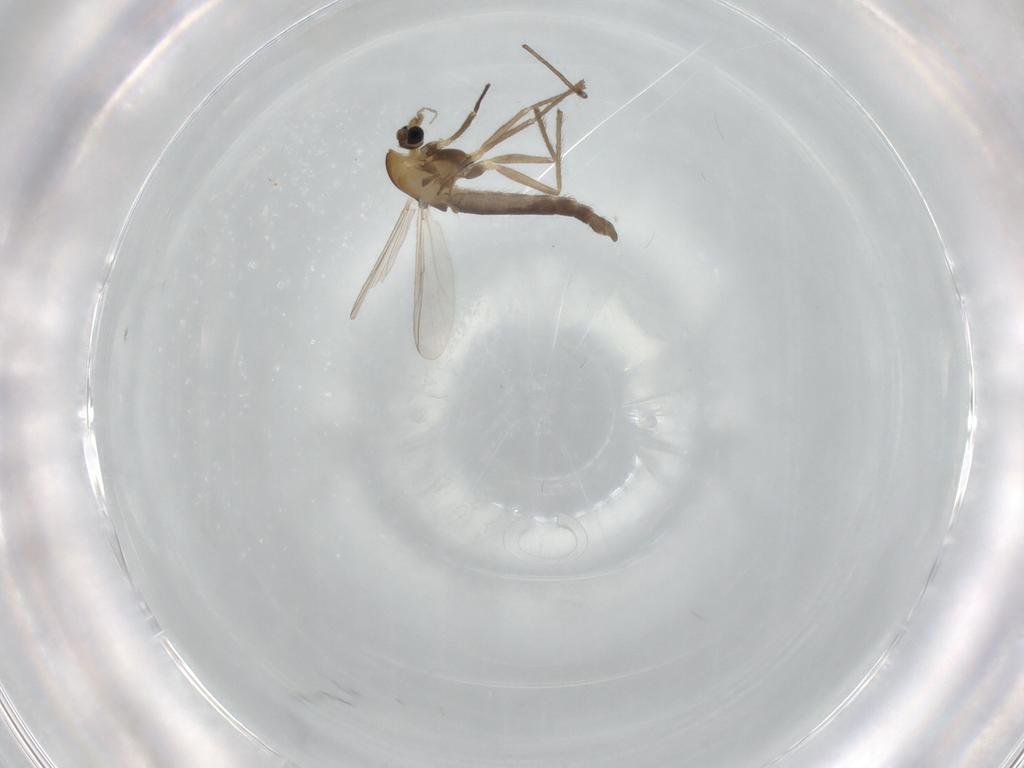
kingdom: Animalia
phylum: Arthropoda
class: Insecta
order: Diptera
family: Chironomidae
